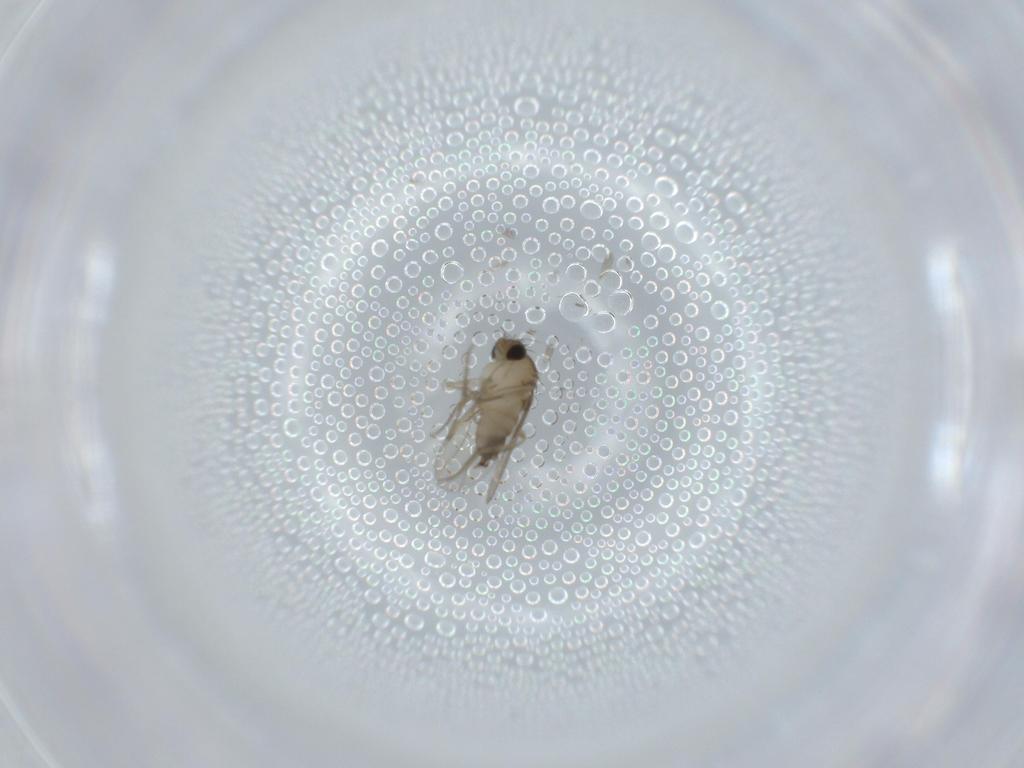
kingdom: Animalia
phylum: Arthropoda
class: Insecta
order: Diptera
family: Phoridae
